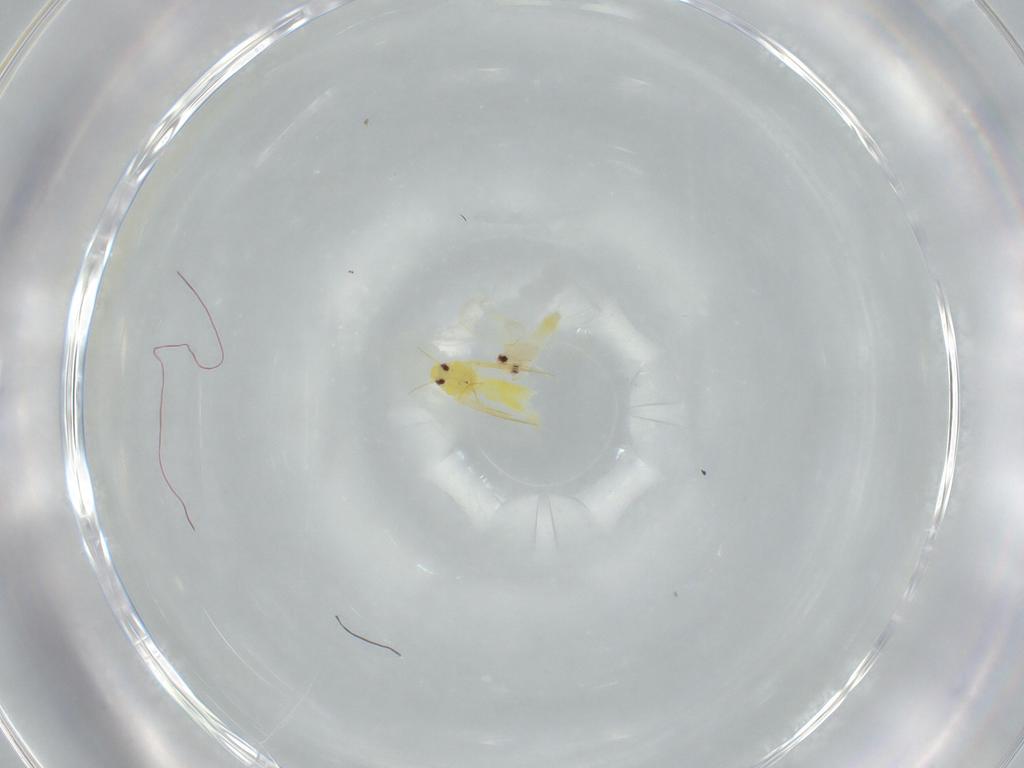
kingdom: Animalia
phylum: Arthropoda
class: Insecta
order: Hemiptera
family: Aleyrodidae
